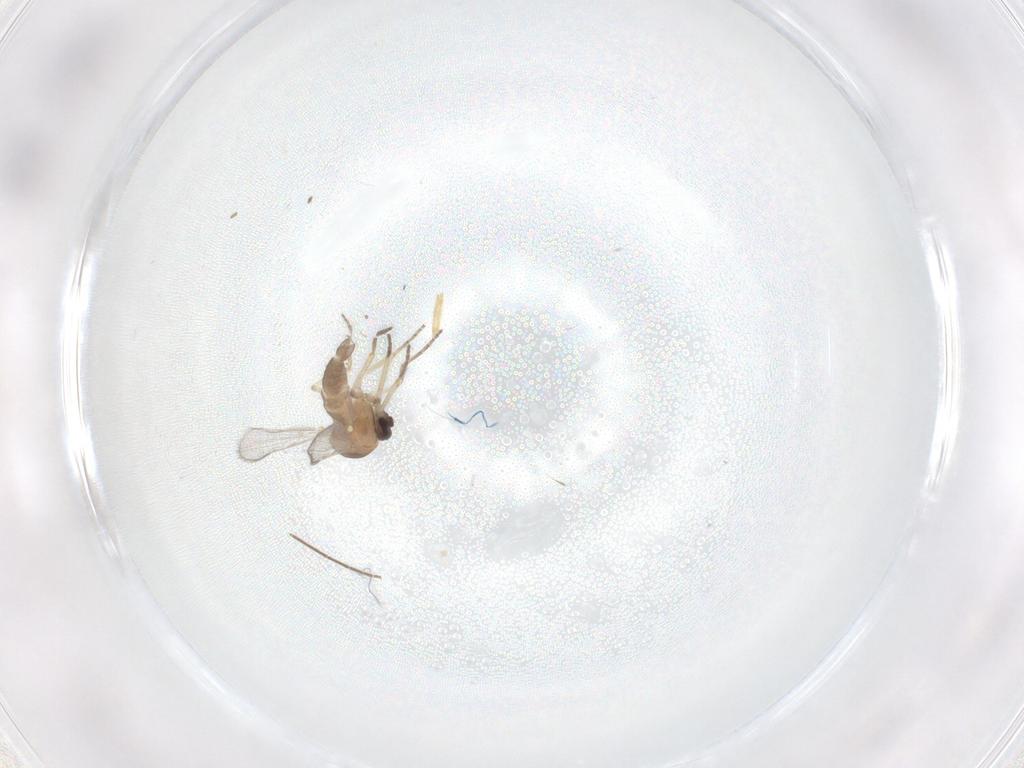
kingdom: Animalia
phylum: Arthropoda
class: Insecta
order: Diptera
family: Chironomidae
